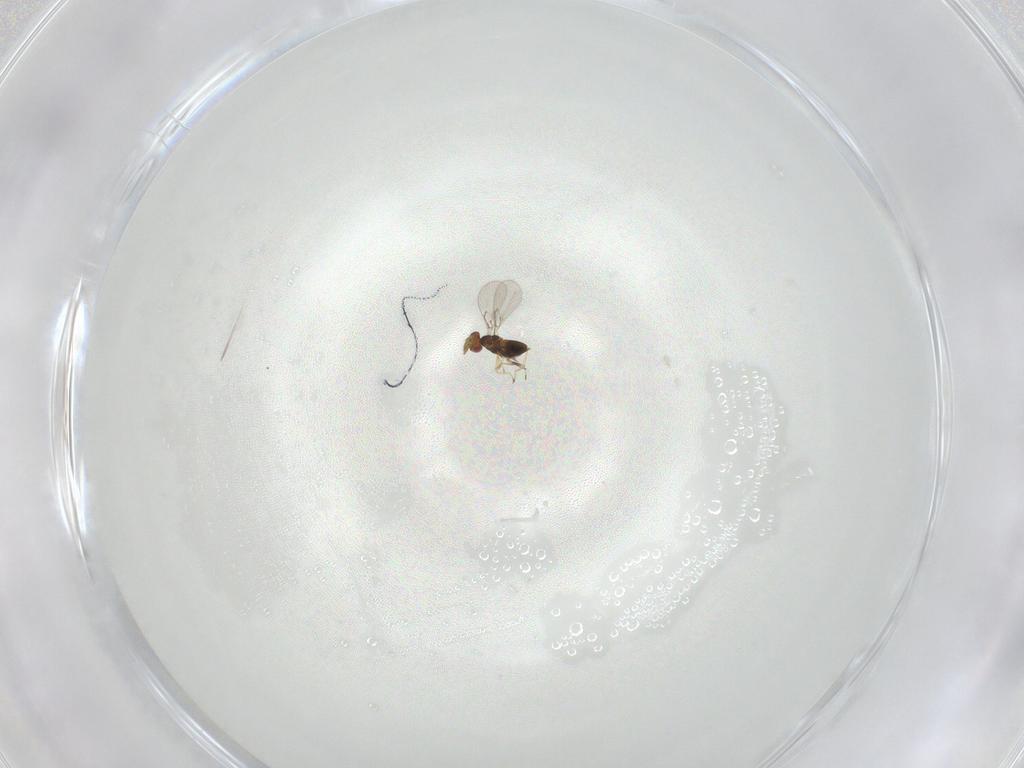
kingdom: Animalia
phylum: Arthropoda
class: Insecta
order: Hymenoptera
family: Trichogrammatidae
